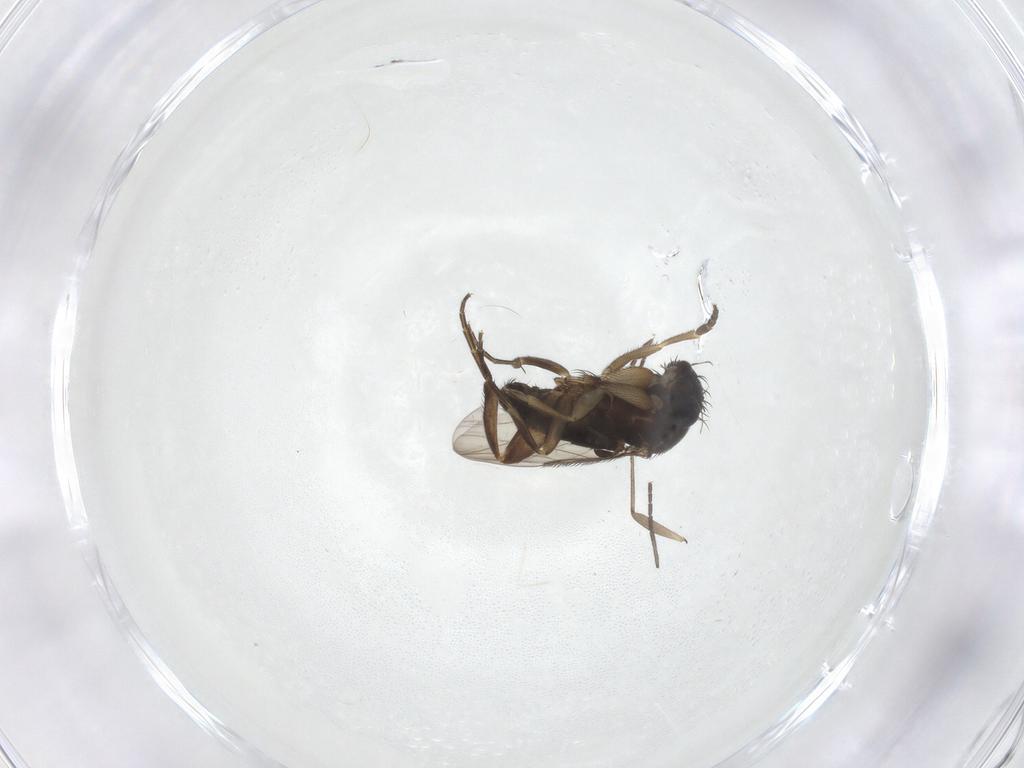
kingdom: Animalia
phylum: Arthropoda
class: Insecta
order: Diptera
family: Phoridae
